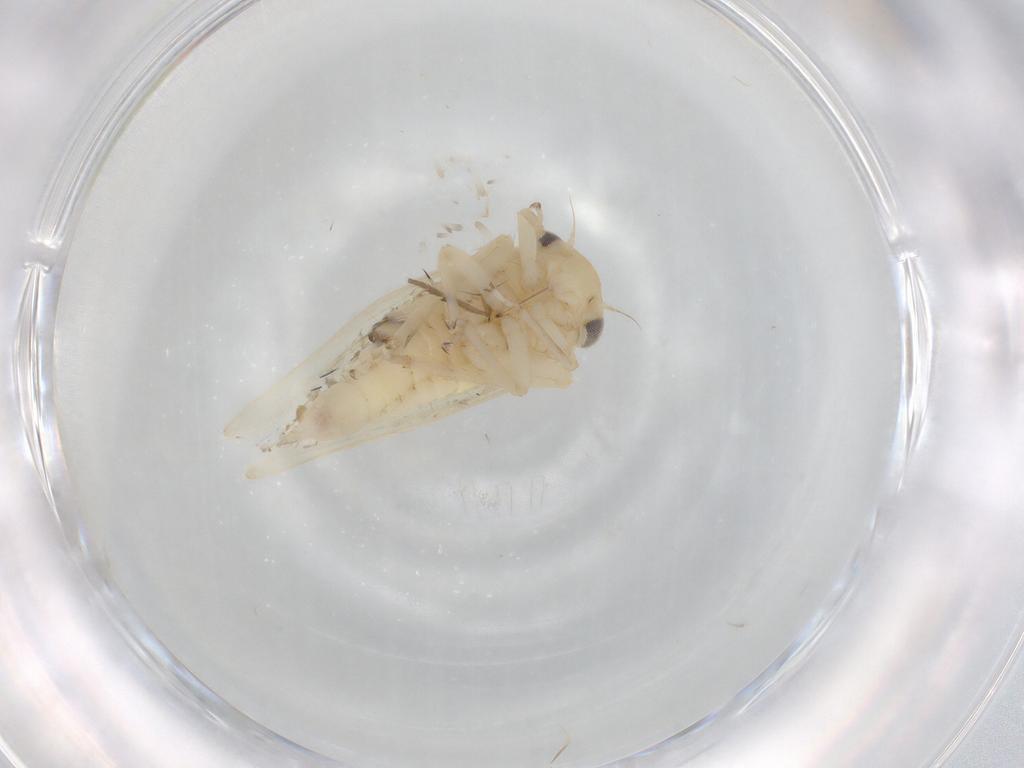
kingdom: Animalia
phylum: Arthropoda
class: Insecta
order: Hemiptera
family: Cicadellidae
